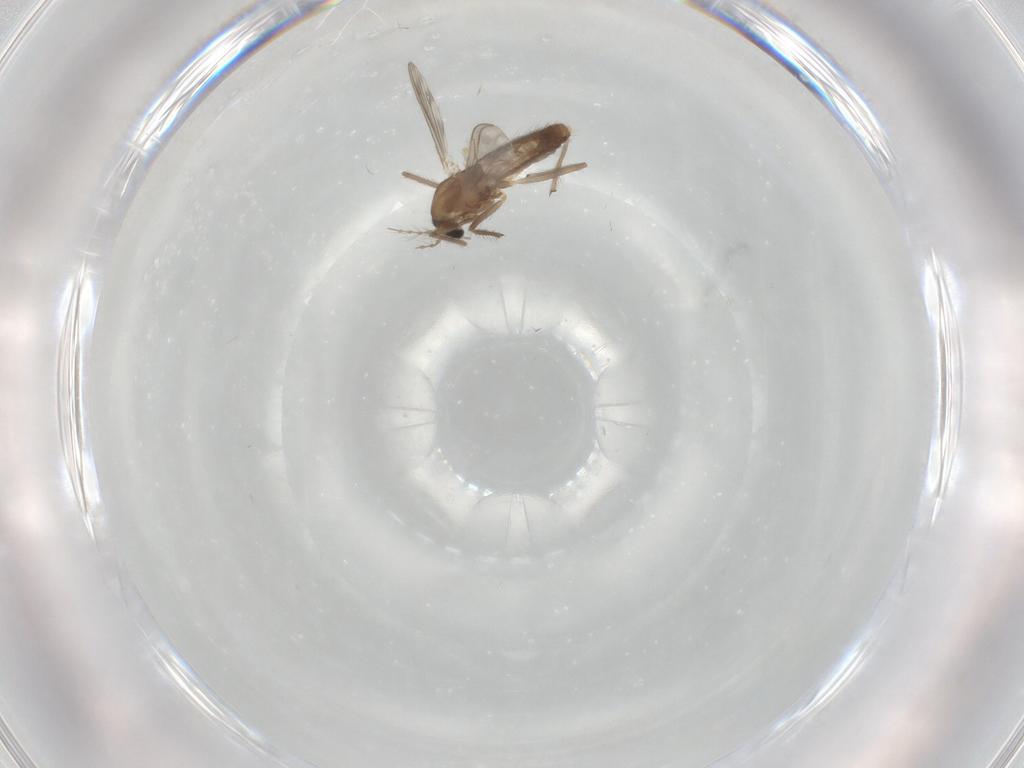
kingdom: Animalia
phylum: Arthropoda
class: Insecta
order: Diptera
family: Chironomidae
